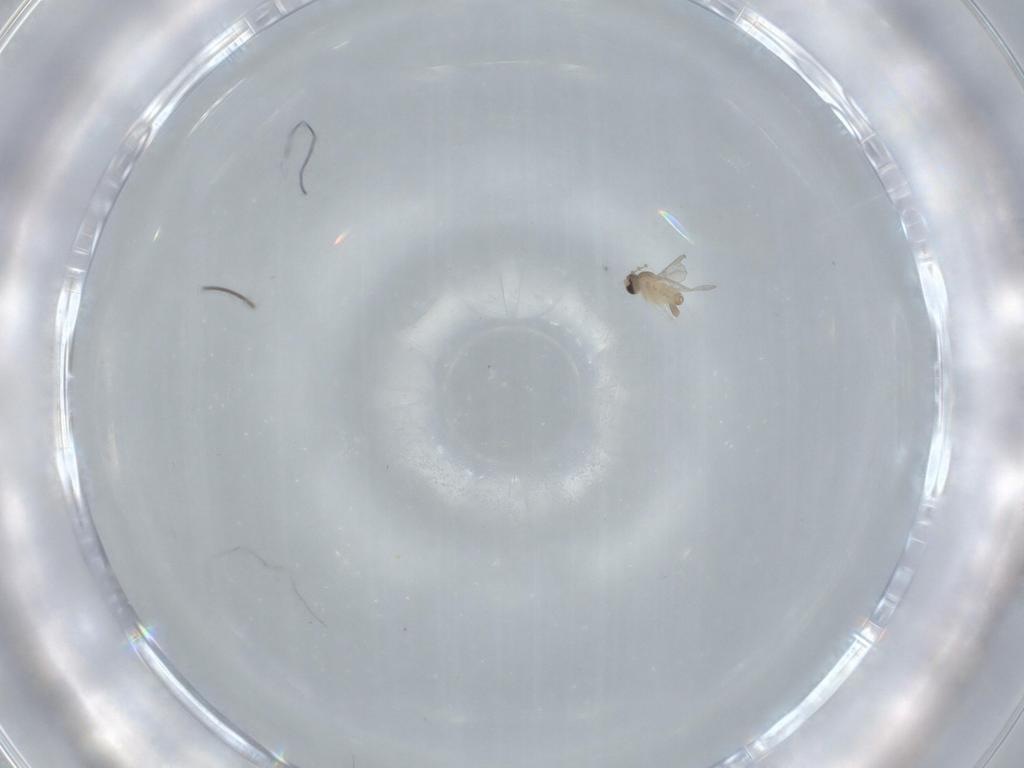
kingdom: Animalia
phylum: Arthropoda
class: Insecta
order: Diptera
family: Sciaridae
